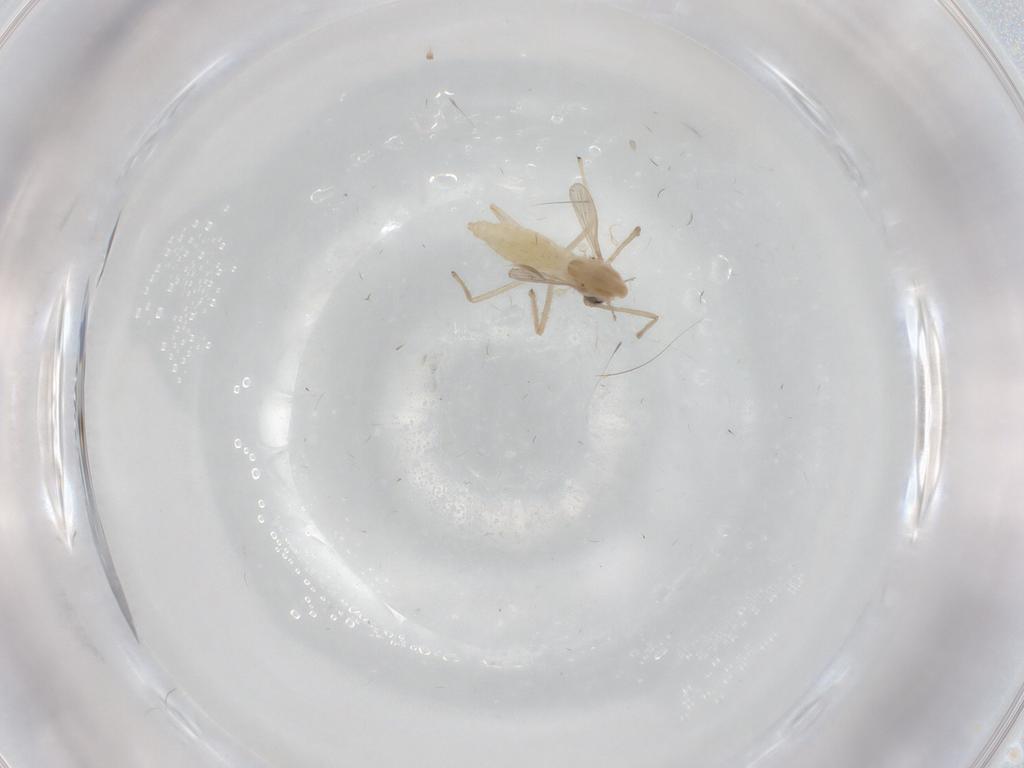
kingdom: Animalia
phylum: Arthropoda
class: Insecta
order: Diptera
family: Chironomidae
